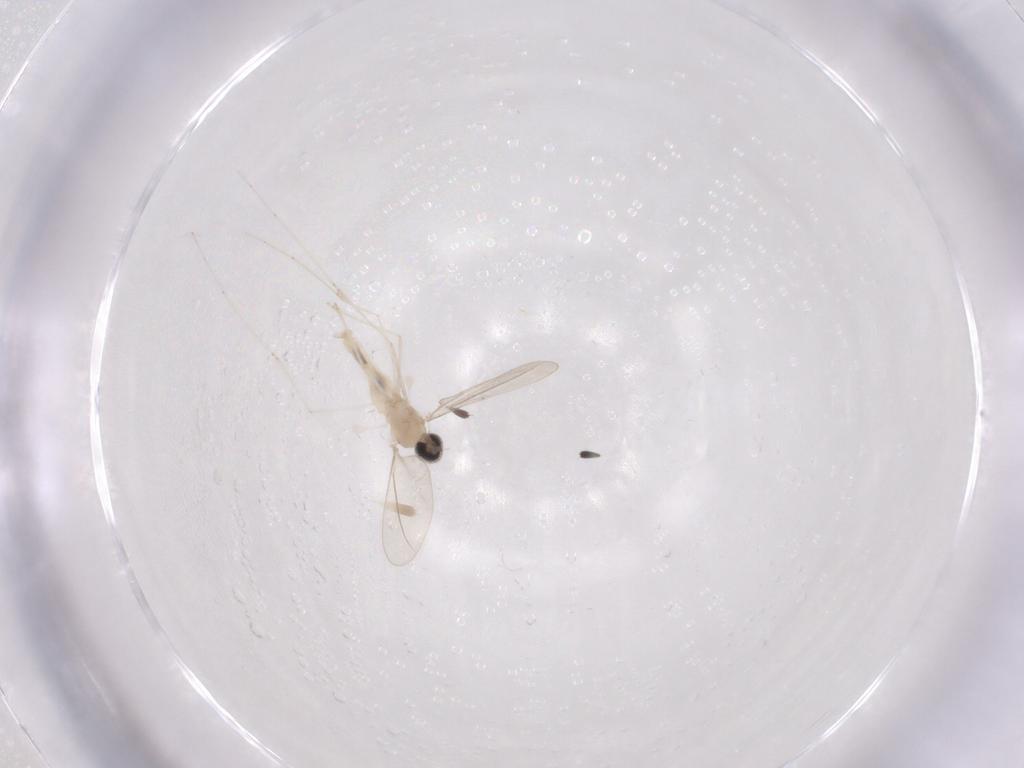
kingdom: Animalia
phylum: Arthropoda
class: Insecta
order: Diptera
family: Cecidomyiidae
